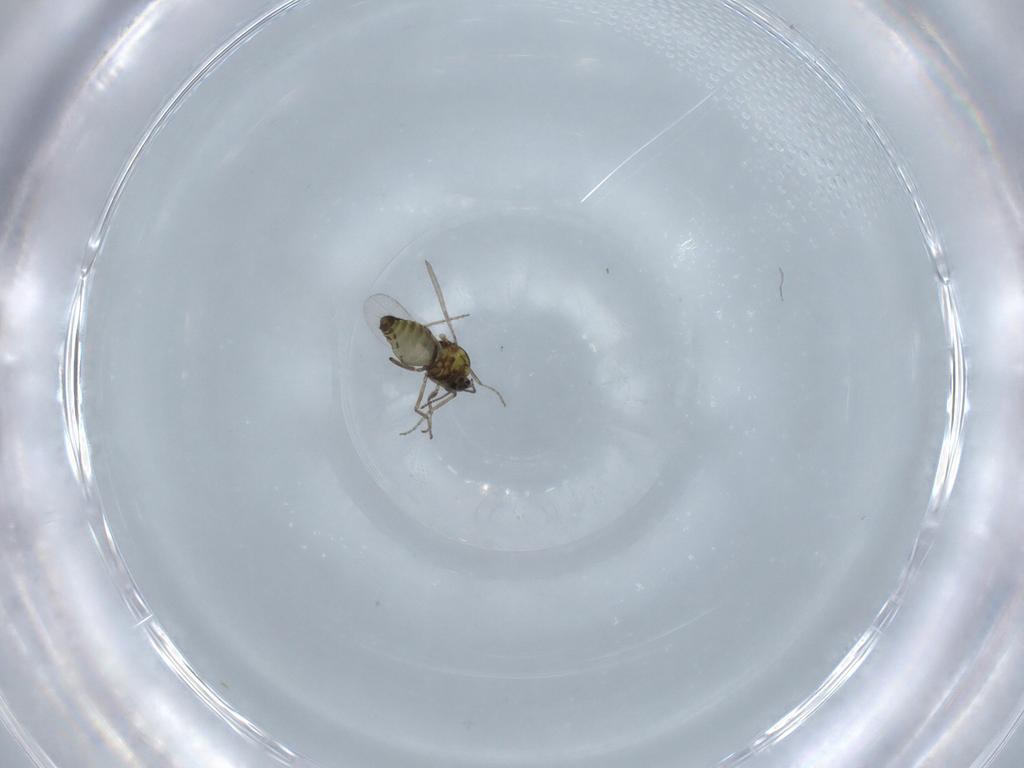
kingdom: Animalia
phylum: Arthropoda
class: Insecta
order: Diptera
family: Ceratopogonidae
